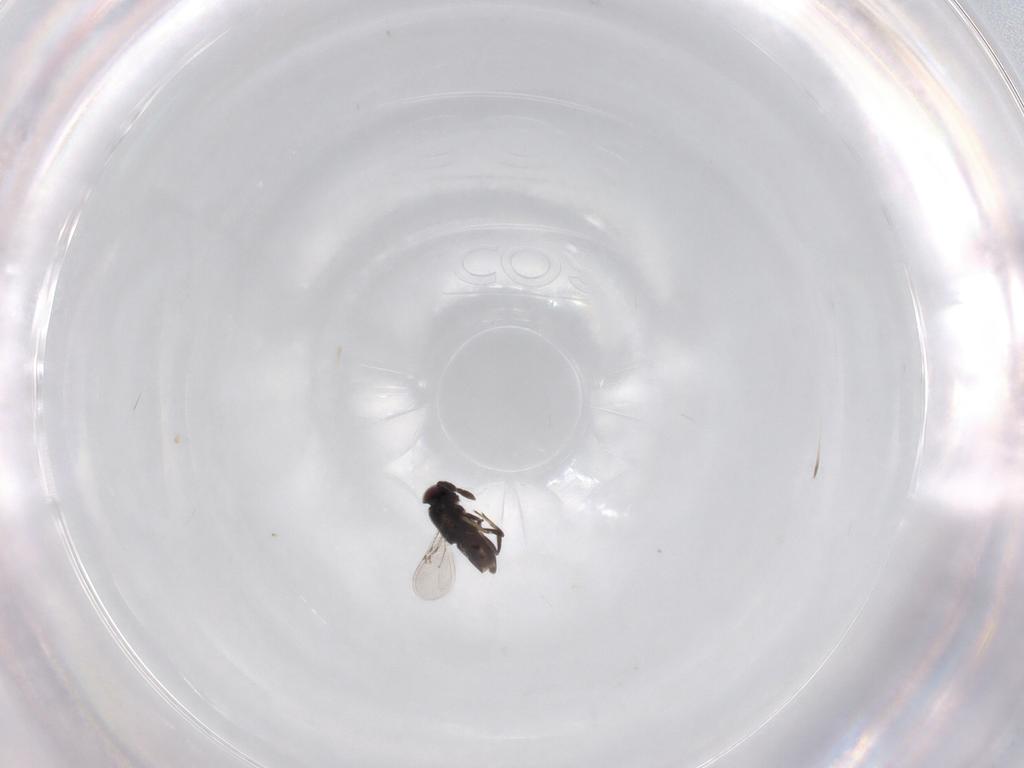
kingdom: Animalia
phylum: Arthropoda
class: Insecta
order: Hymenoptera
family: Encyrtidae
